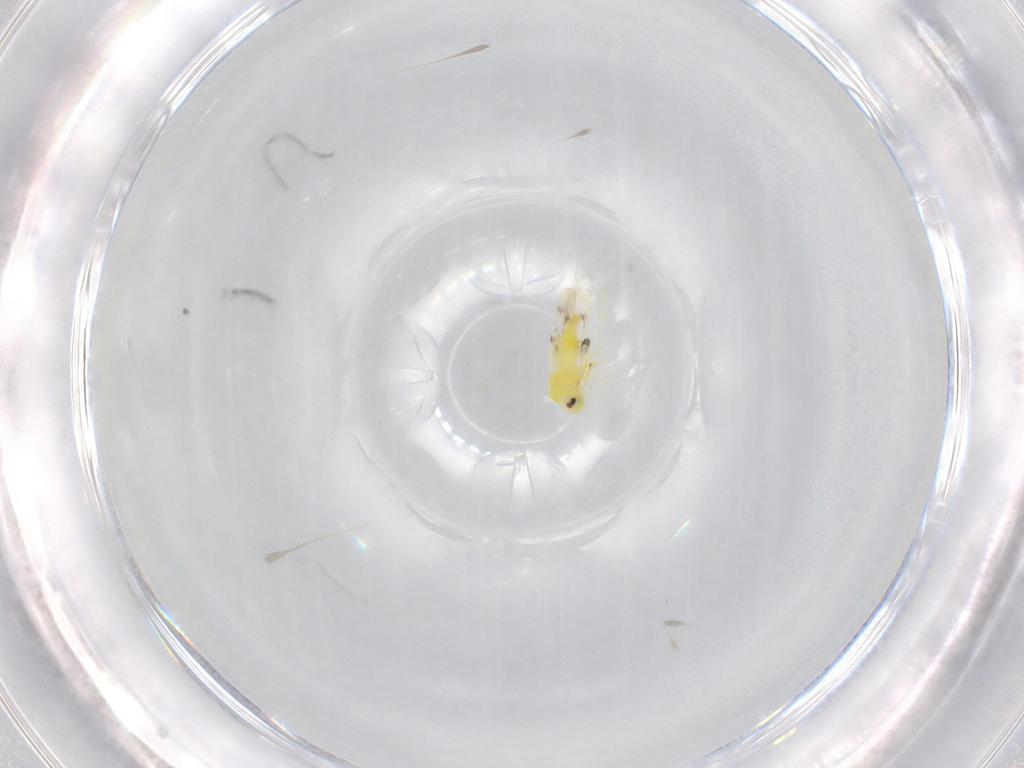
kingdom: Animalia
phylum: Arthropoda
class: Insecta
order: Hemiptera
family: Aleyrodidae
